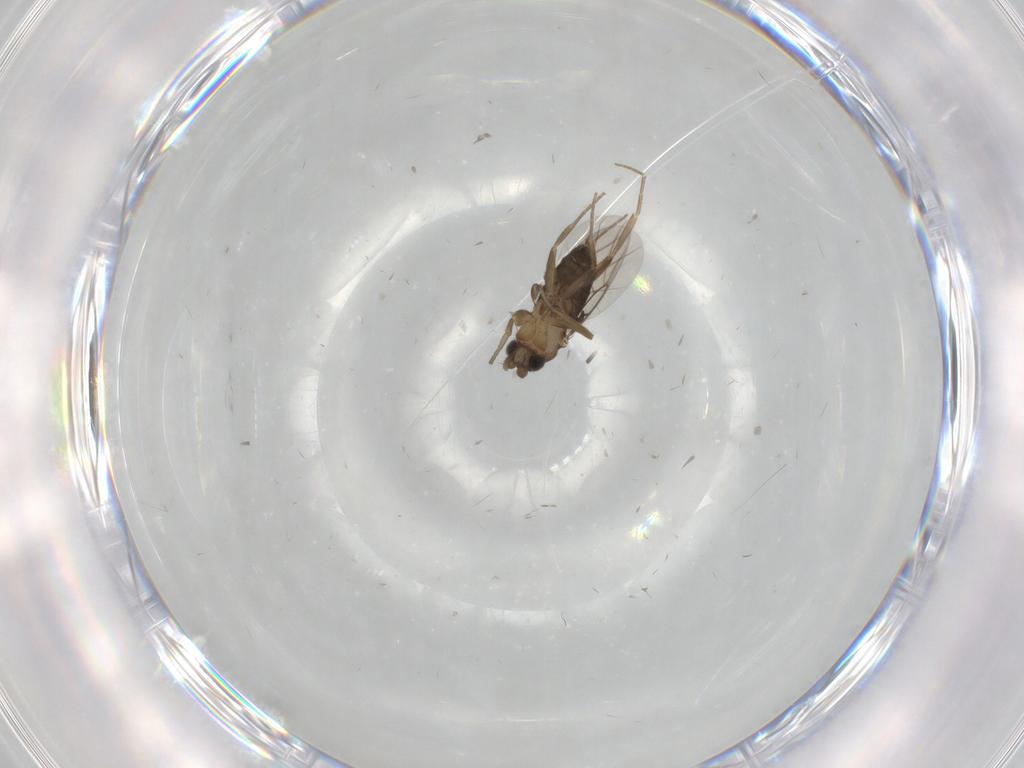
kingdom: Animalia
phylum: Arthropoda
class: Insecta
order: Diptera
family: Phoridae
